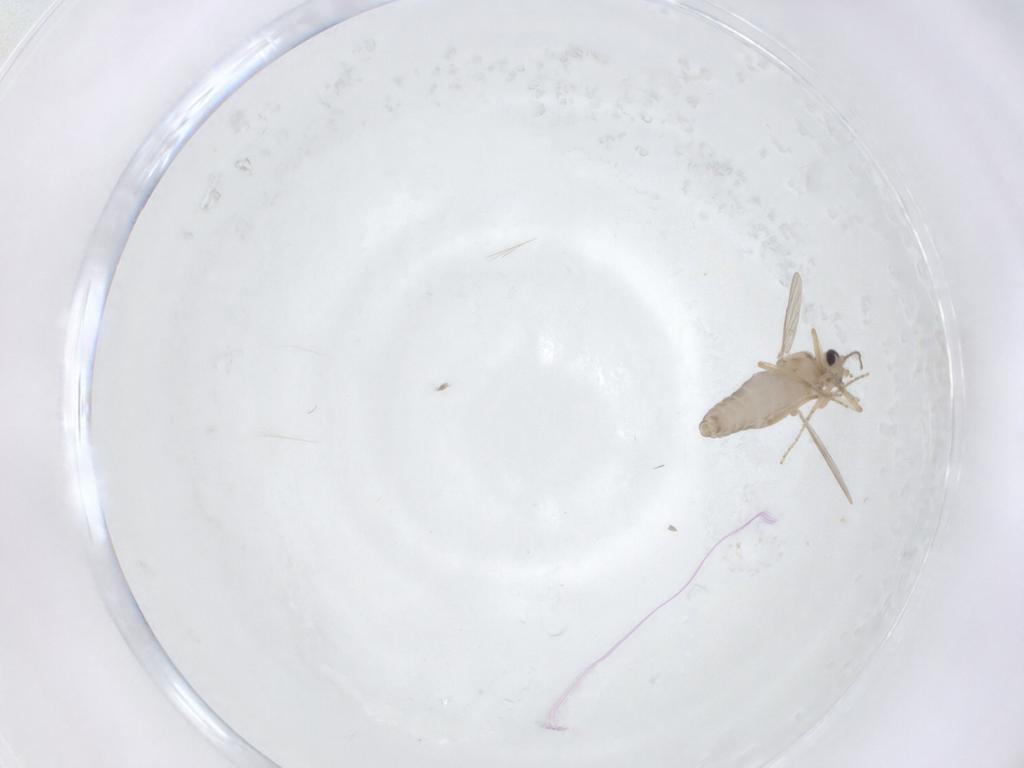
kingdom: Animalia
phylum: Arthropoda
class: Insecta
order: Diptera
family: Ceratopogonidae
